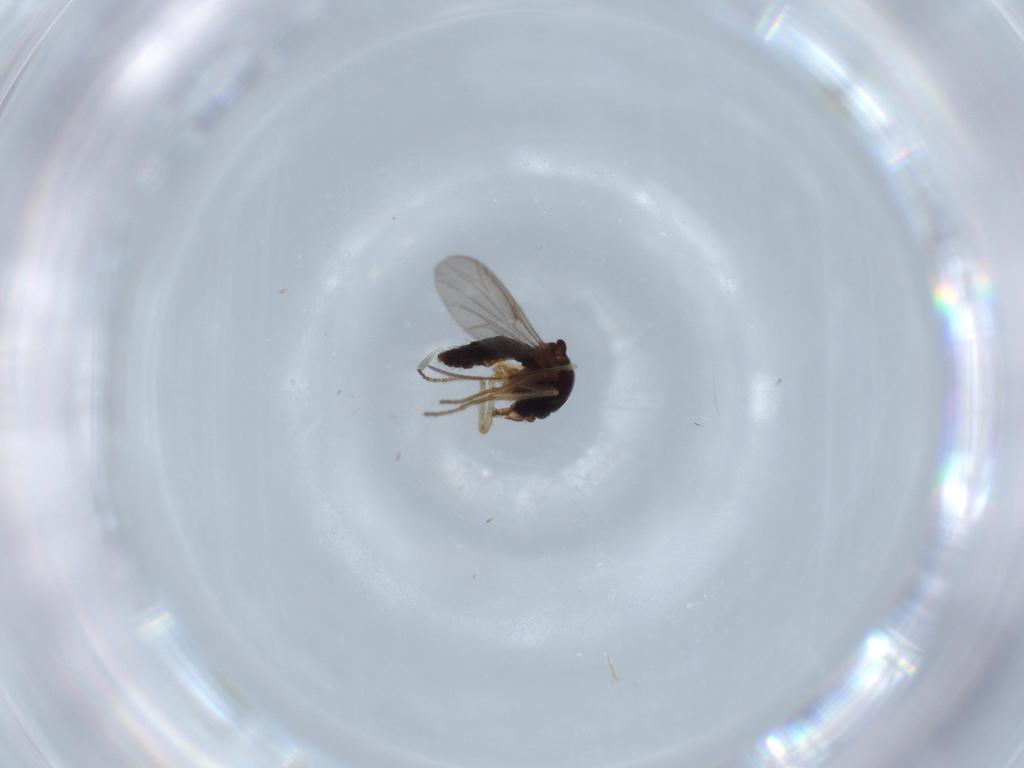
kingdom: Animalia
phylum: Arthropoda
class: Insecta
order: Diptera
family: Ceratopogonidae
